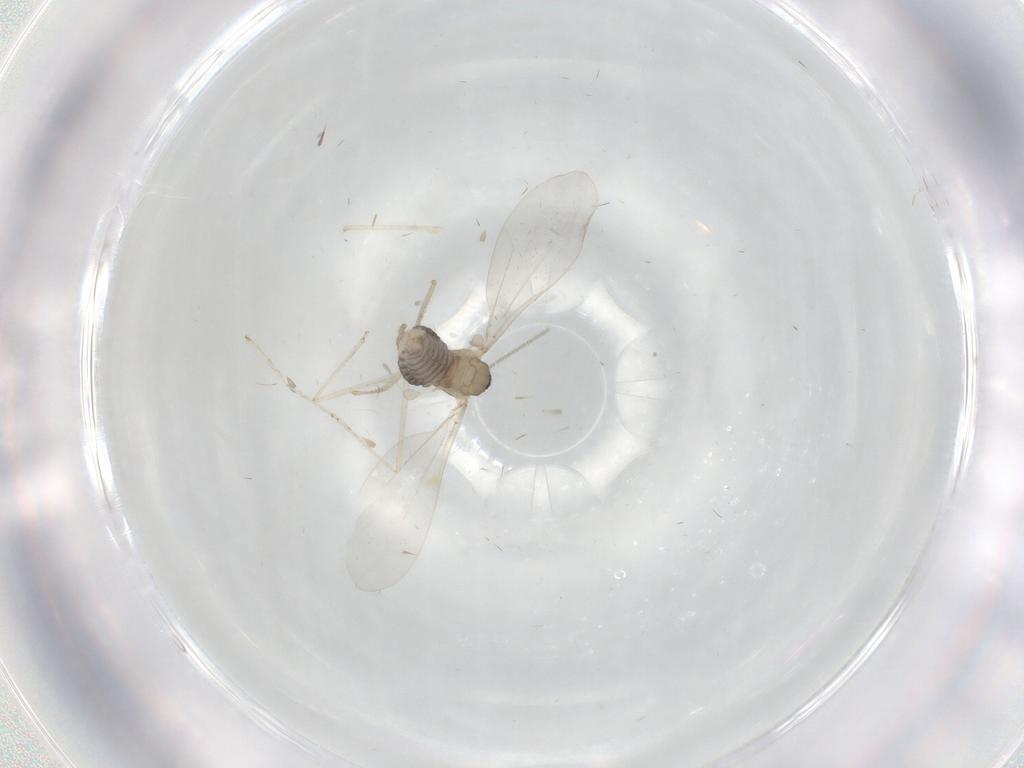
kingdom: Animalia
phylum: Arthropoda
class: Insecta
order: Diptera
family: Cecidomyiidae
